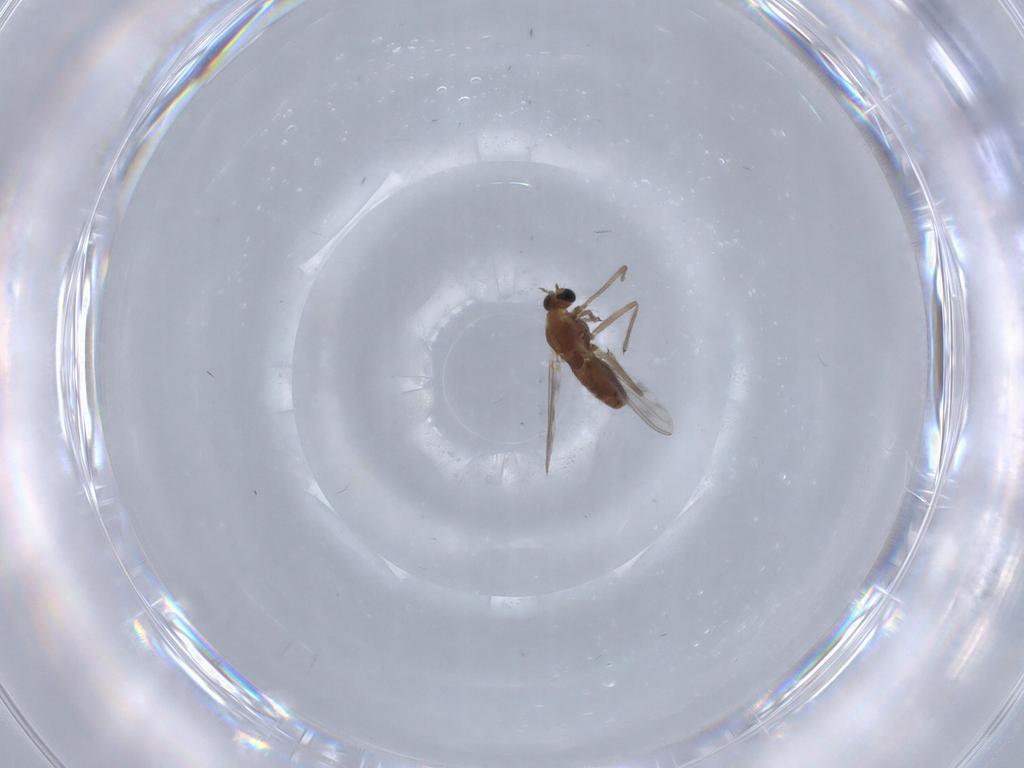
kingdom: Animalia
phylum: Arthropoda
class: Insecta
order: Diptera
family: Chironomidae
